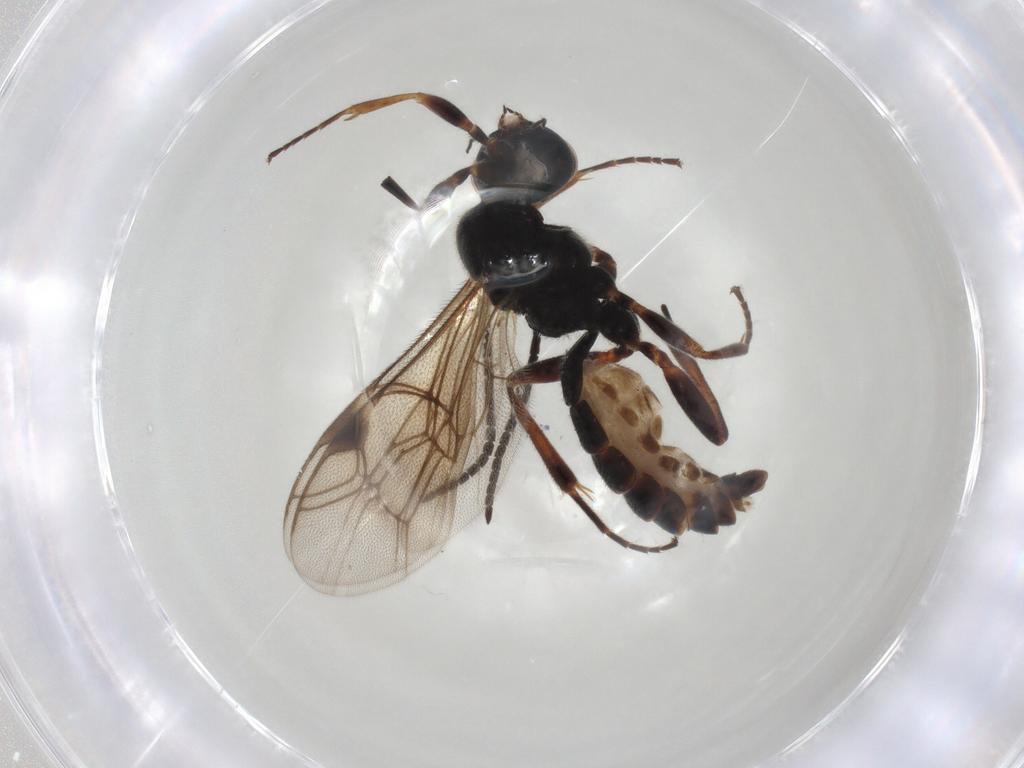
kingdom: Animalia
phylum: Arthropoda
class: Insecta
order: Hymenoptera
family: Ichneumonidae
